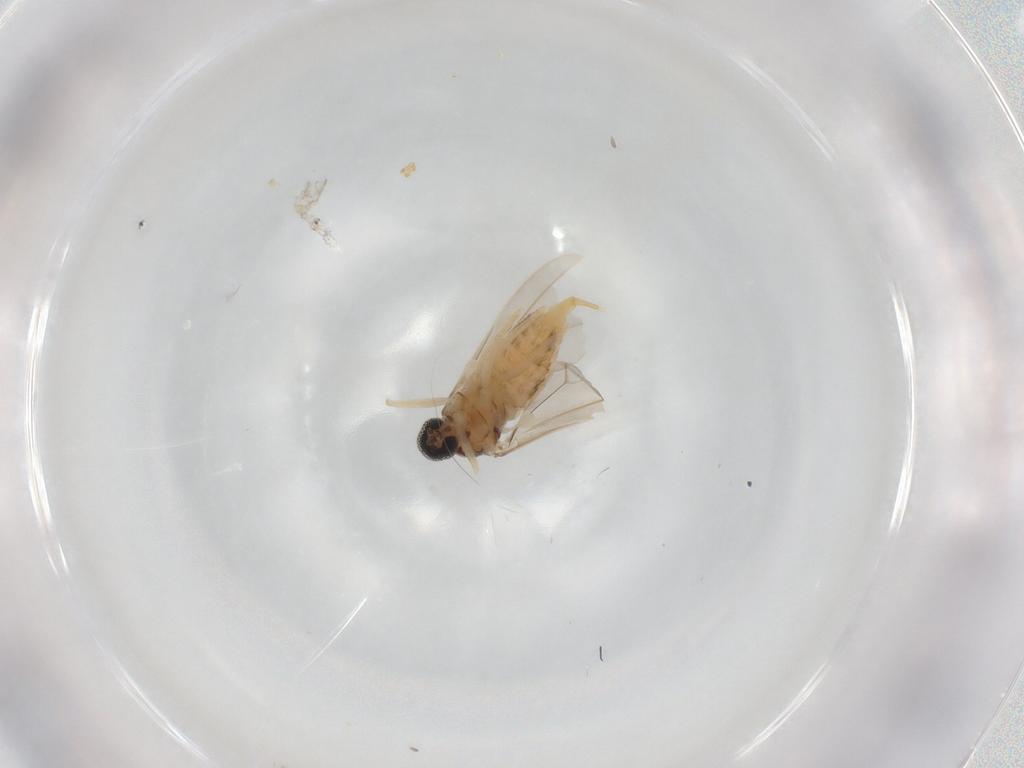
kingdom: Animalia
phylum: Arthropoda
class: Insecta
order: Diptera
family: Cecidomyiidae
